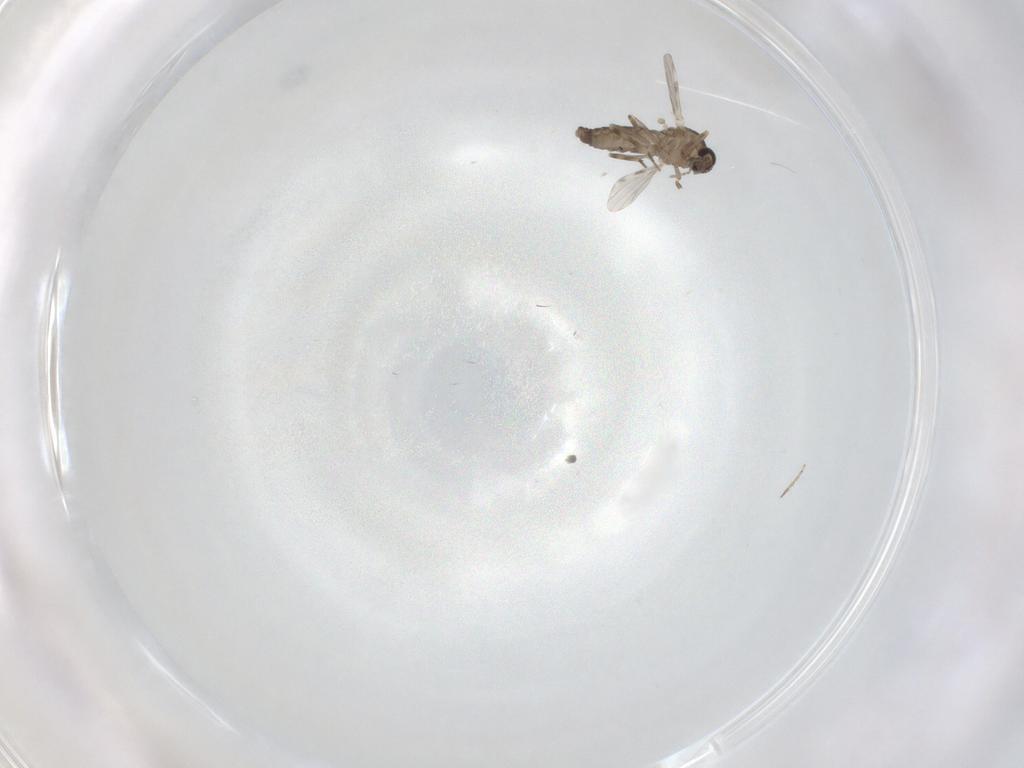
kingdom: Animalia
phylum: Arthropoda
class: Insecta
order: Diptera
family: Ceratopogonidae
